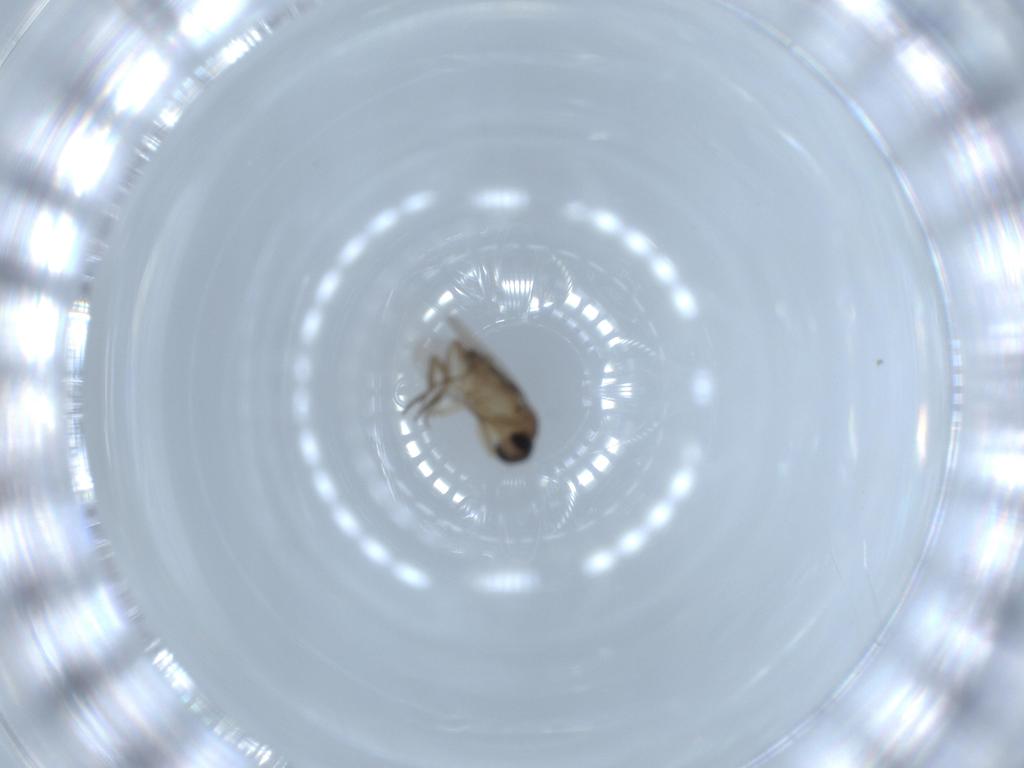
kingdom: Animalia
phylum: Arthropoda
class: Insecta
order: Diptera
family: Phoridae
